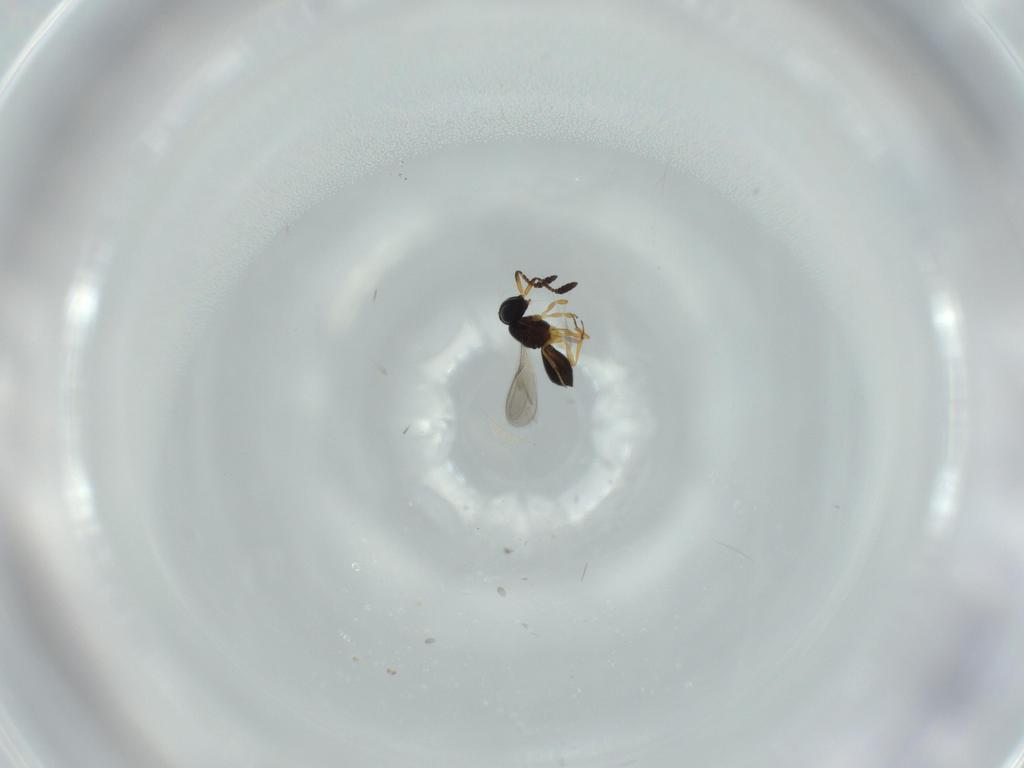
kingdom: Animalia
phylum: Arthropoda
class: Insecta
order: Hymenoptera
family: Scelionidae
